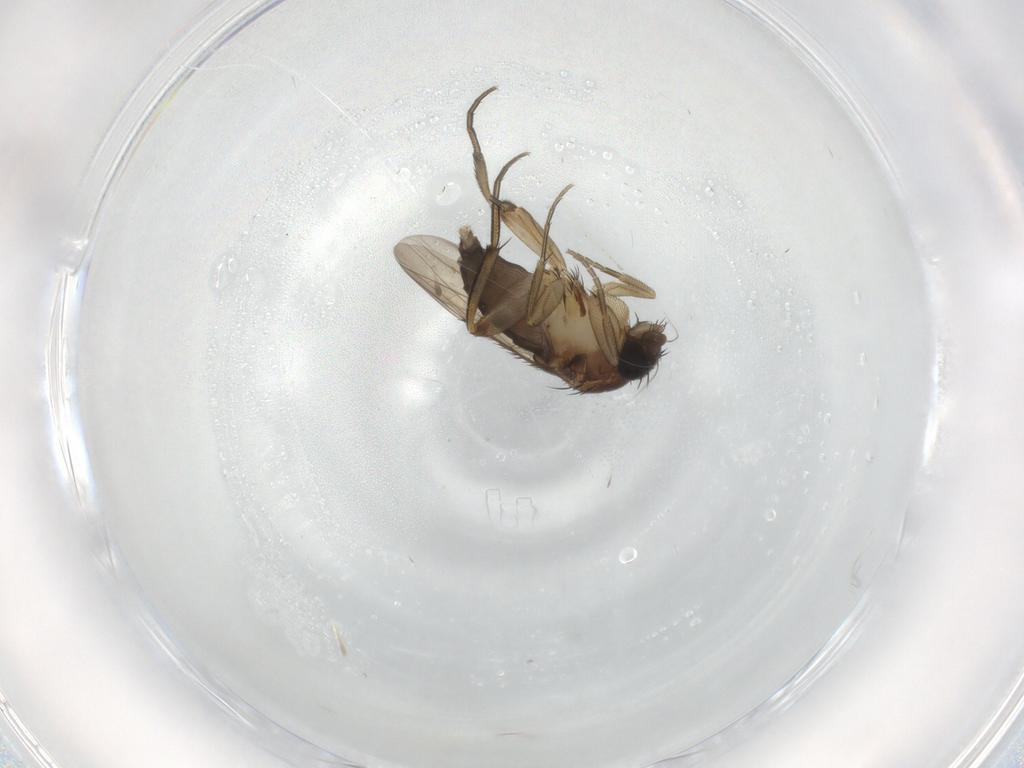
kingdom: Animalia
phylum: Arthropoda
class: Insecta
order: Diptera
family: Phoridae
